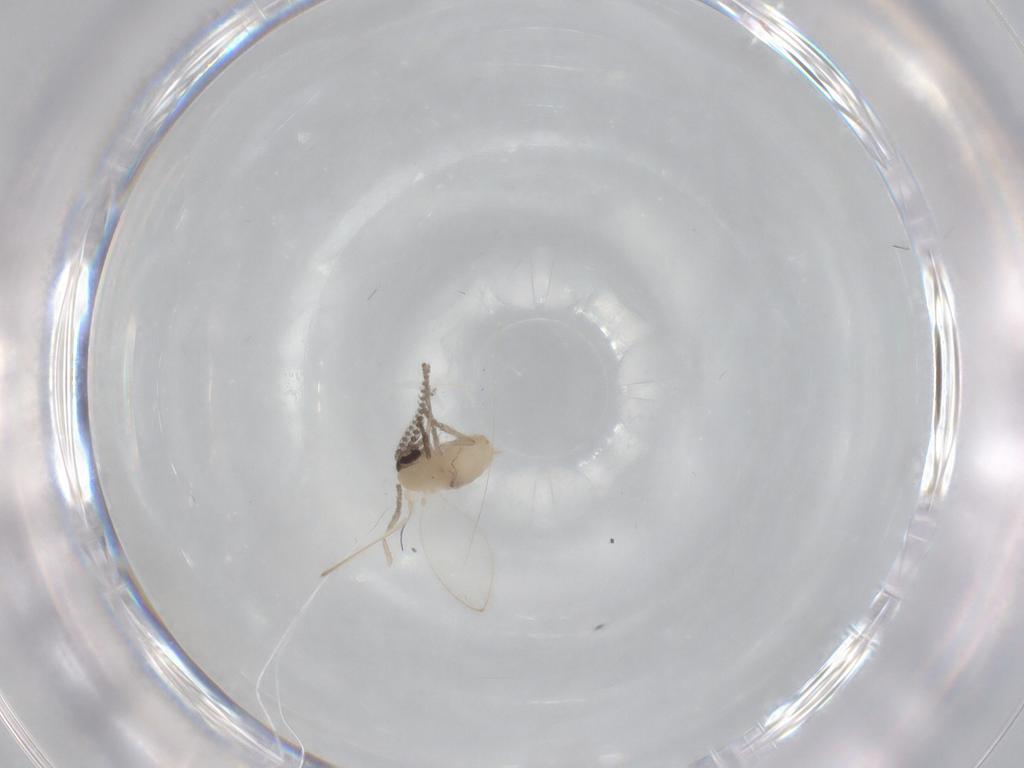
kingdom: Animalia
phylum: Arthropoda
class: Insecta
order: Diptera
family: Psychodidae
